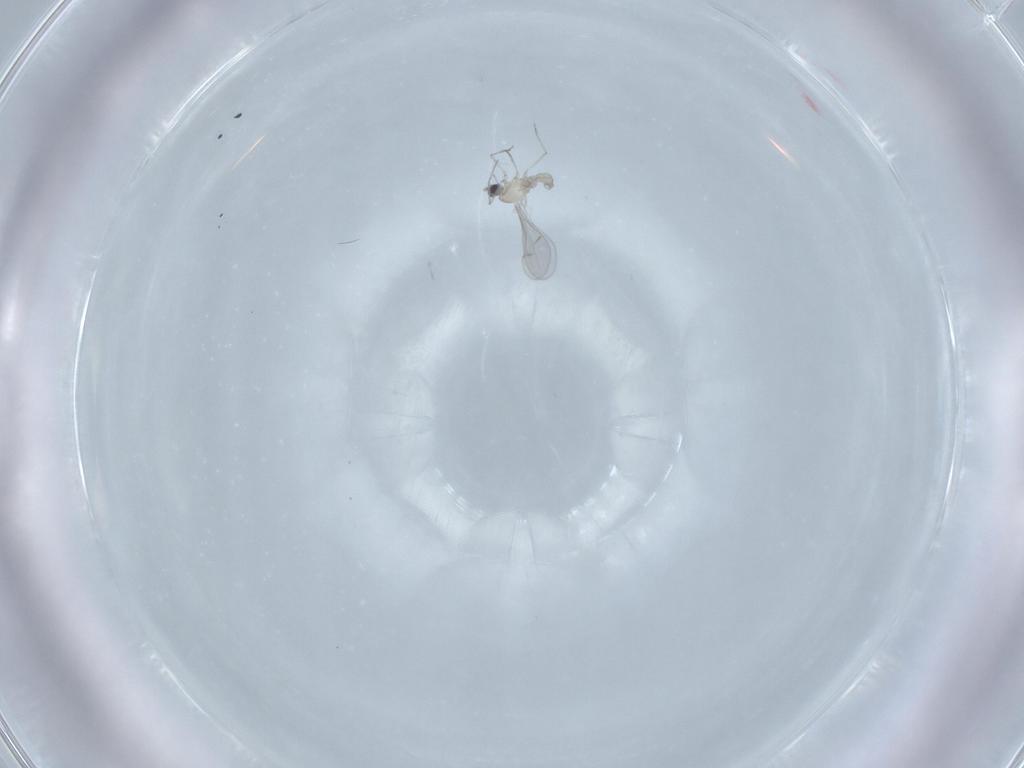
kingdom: Animalia
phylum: Arthropoda
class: Insecta
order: Diptera
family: Cecidomyiidae
